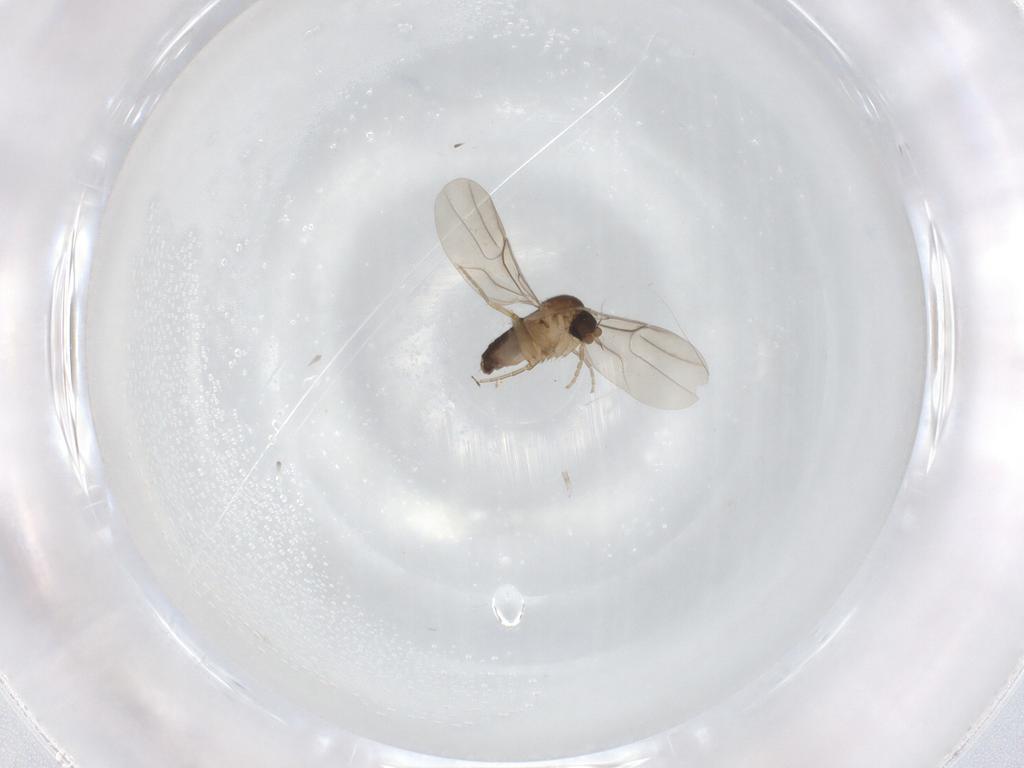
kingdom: Animalia
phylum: Arthropoda
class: Insecta
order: Diptera
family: Phoridae
